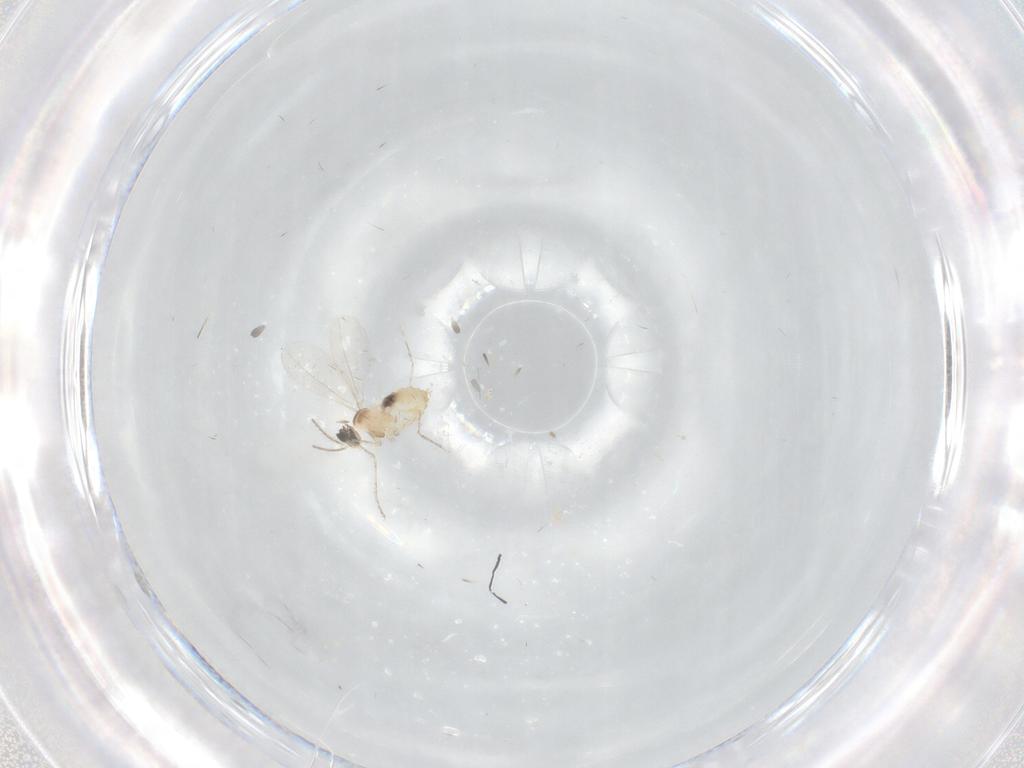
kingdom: Animalia
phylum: Arthropoda
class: Insecta
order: Diptera
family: Cecidomyiidae
